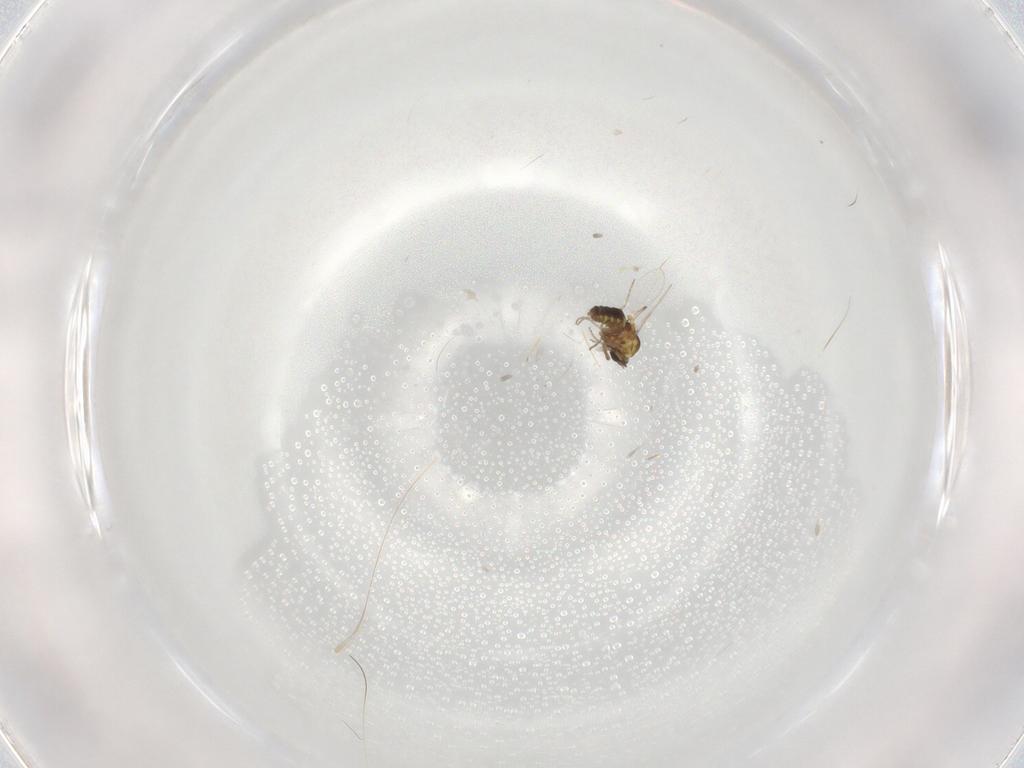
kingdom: Animalia
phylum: Arthropoda
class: Insecta
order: Diptera
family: Ceratopogonidae
